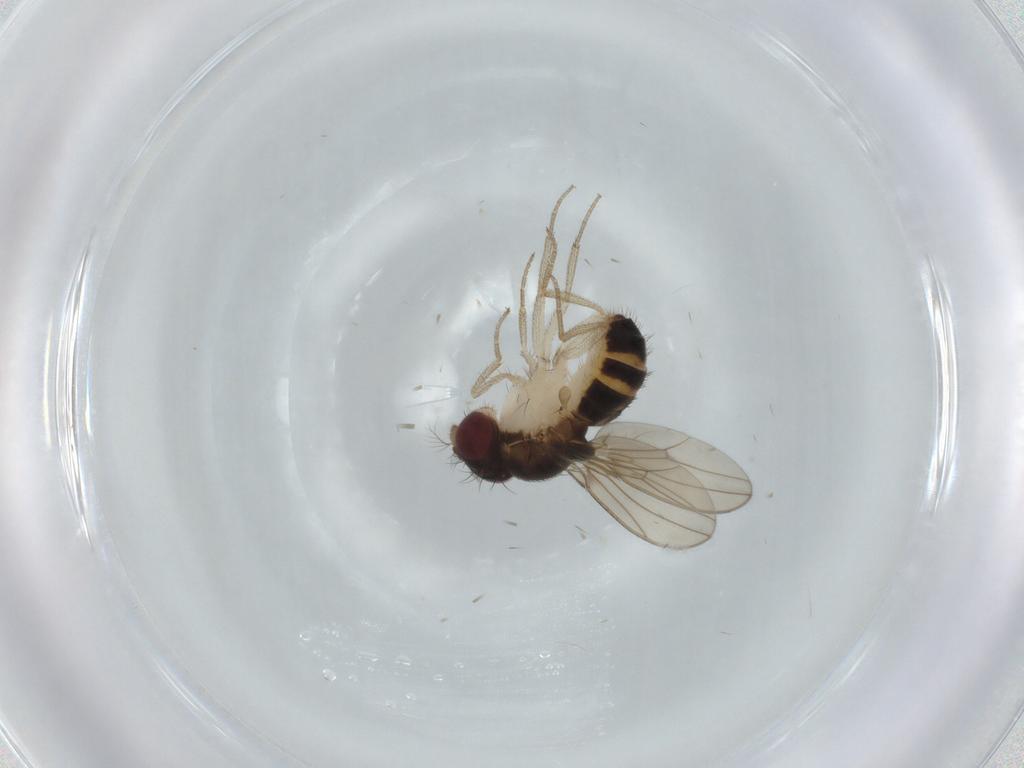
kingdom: Animalia
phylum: Arthropoda
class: Insecta
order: Diptera
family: Drosophilidae
